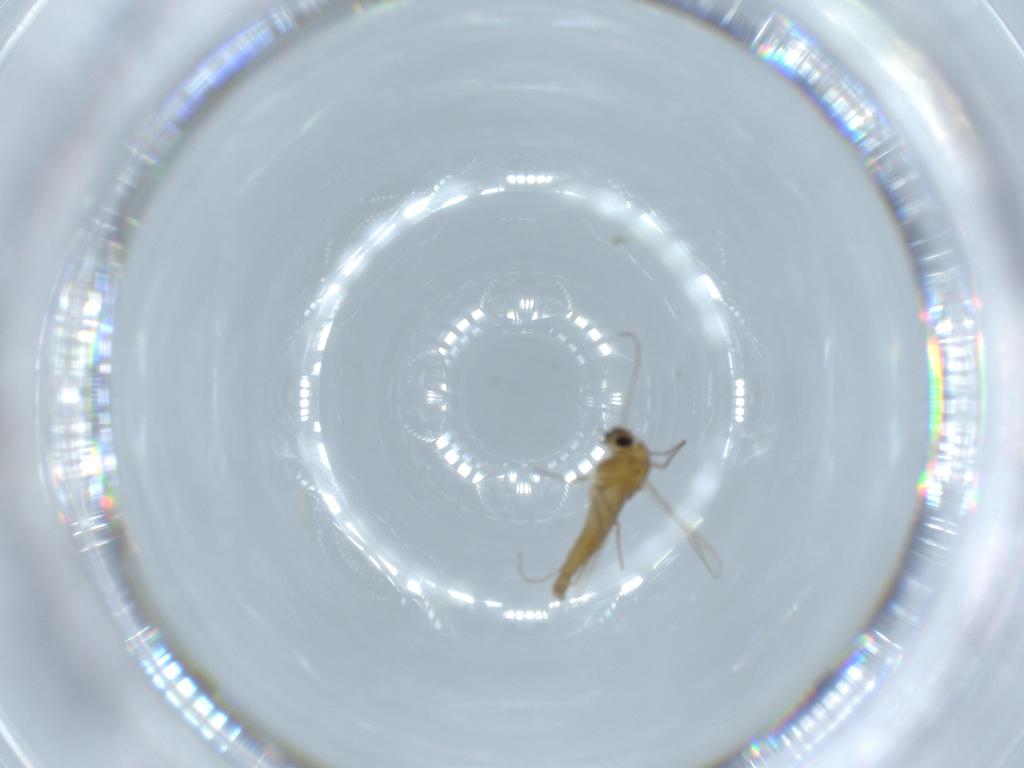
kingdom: Animalia
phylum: Arthropoda
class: Insecta
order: Diptera
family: Chironomidae
